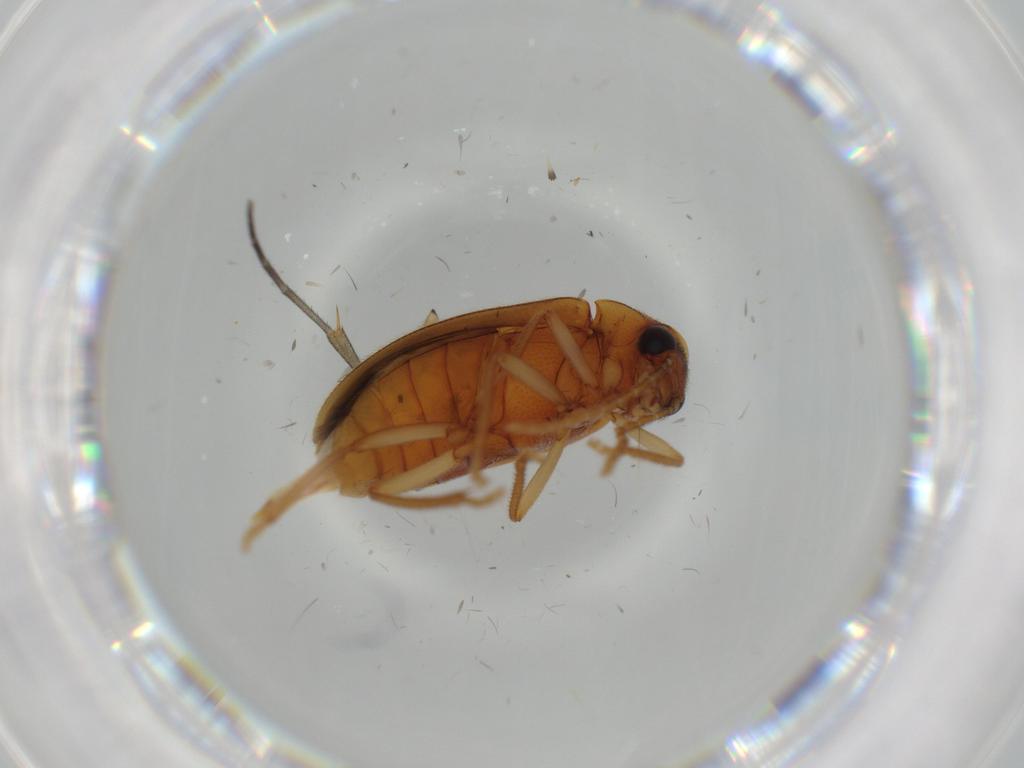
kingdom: Animalia
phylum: Arthropoda
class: Insecta
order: Coleoptera
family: Ptilodactylidae
